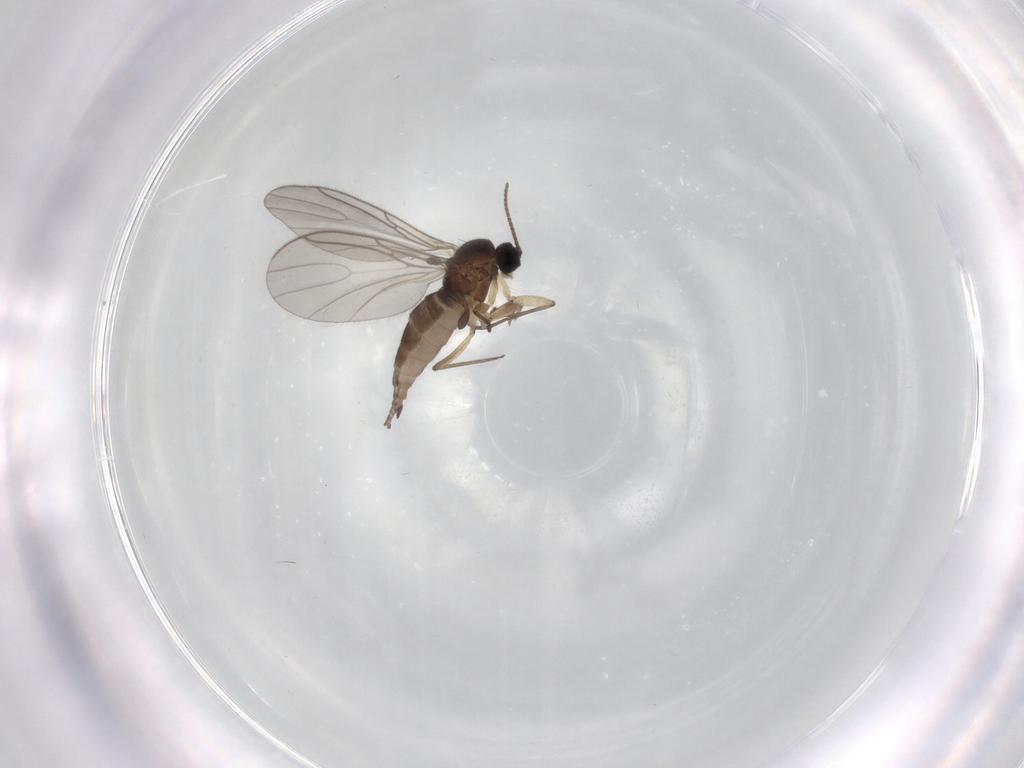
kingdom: Animalia
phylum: Arthropoda
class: Insecta
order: Diptera
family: Sciaridae
